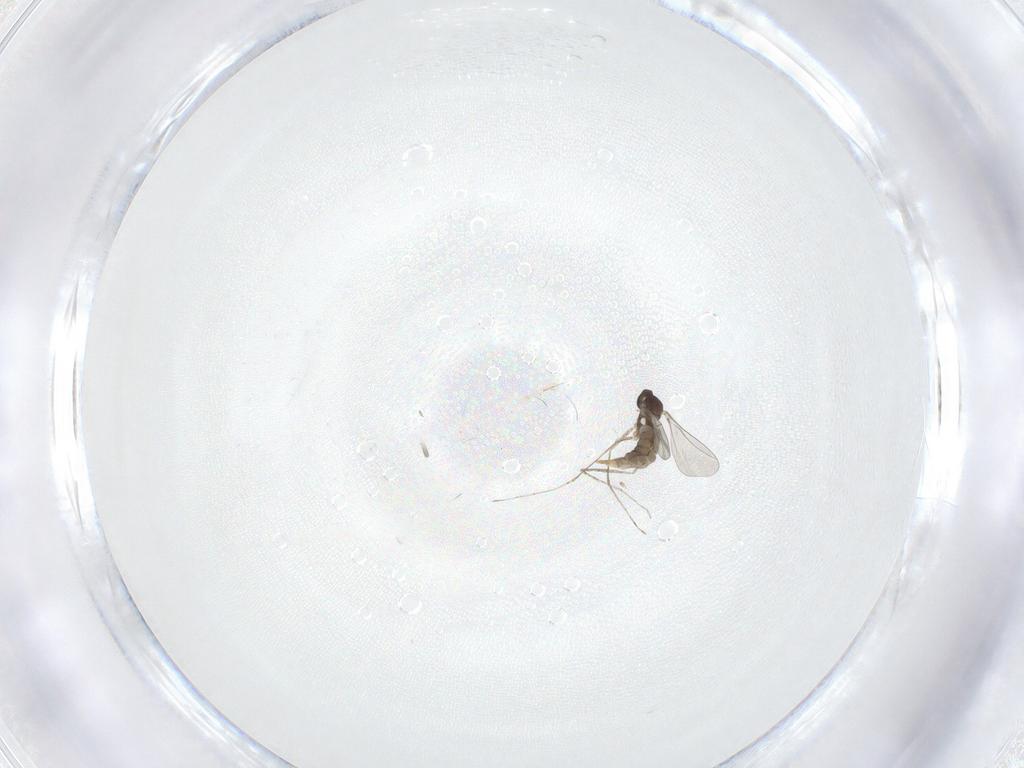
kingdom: Animalia
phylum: Arthropoda
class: Insecta
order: Diptera
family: Cecidomyiidae
